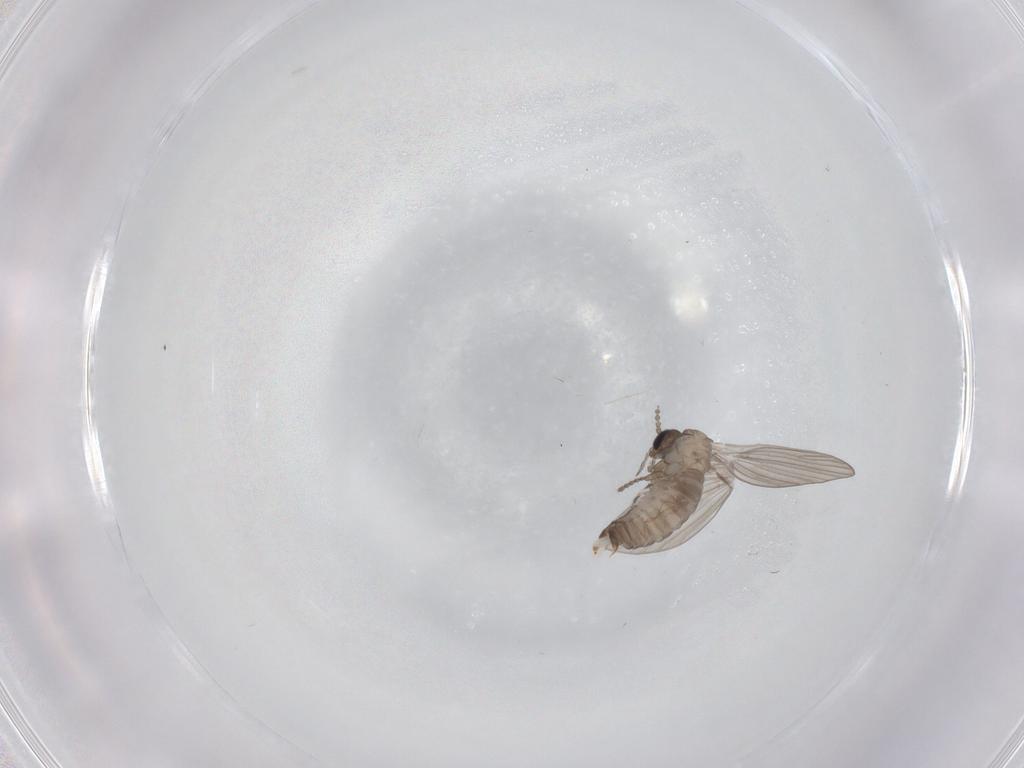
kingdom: Animalia
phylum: Arthropoda
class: Insecta
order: Diptera
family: Psychodidae
